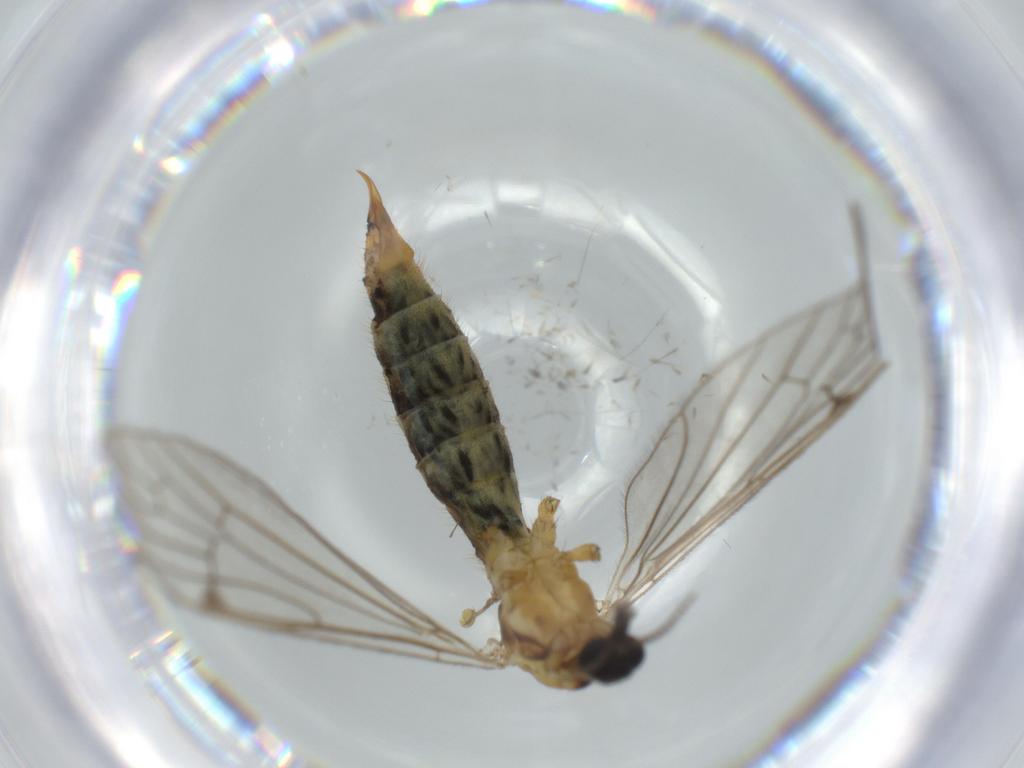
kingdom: Animalia
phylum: Arthropoda
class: Insecta
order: Diptera
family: Limoniidae
